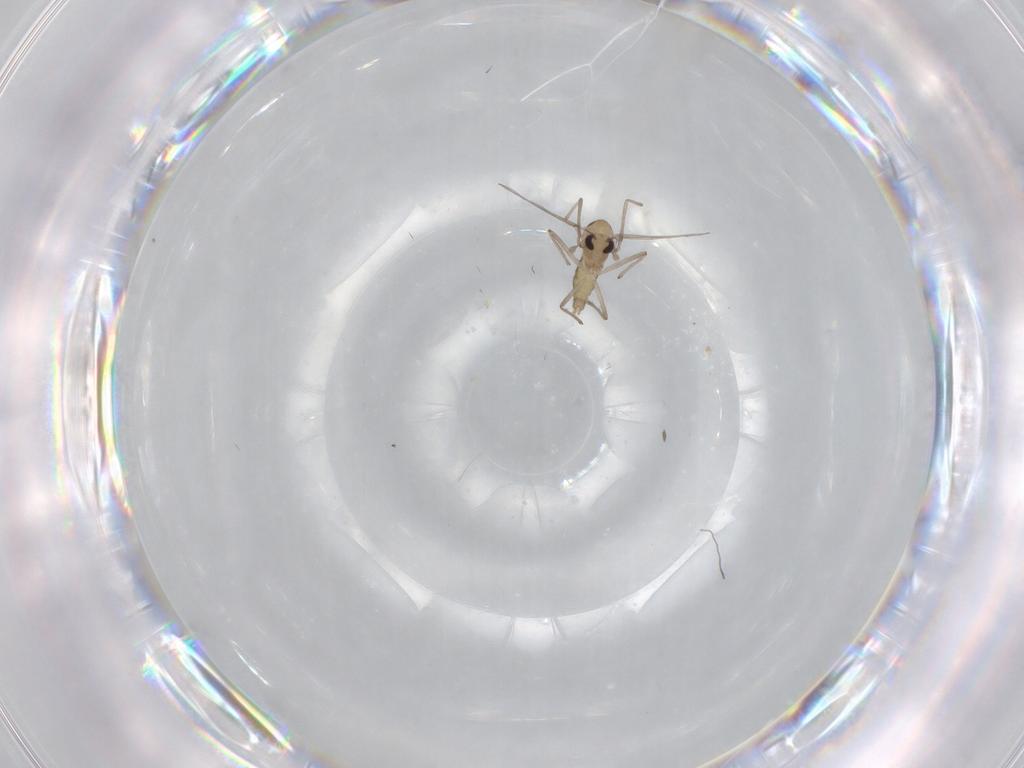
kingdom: Animalia
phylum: Arthropoda
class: Insecta
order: Diptera
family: Chironomidae
